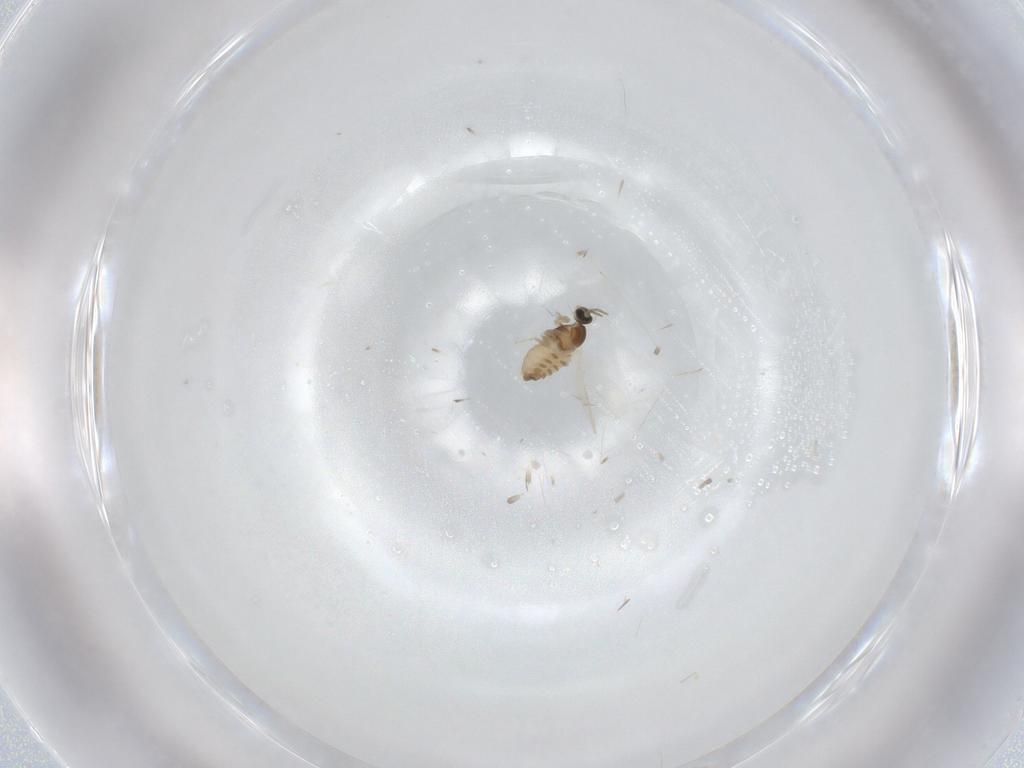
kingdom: Animalia
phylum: Arthropoda
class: Insecta
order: Diptera
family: Cecidomyiidae
